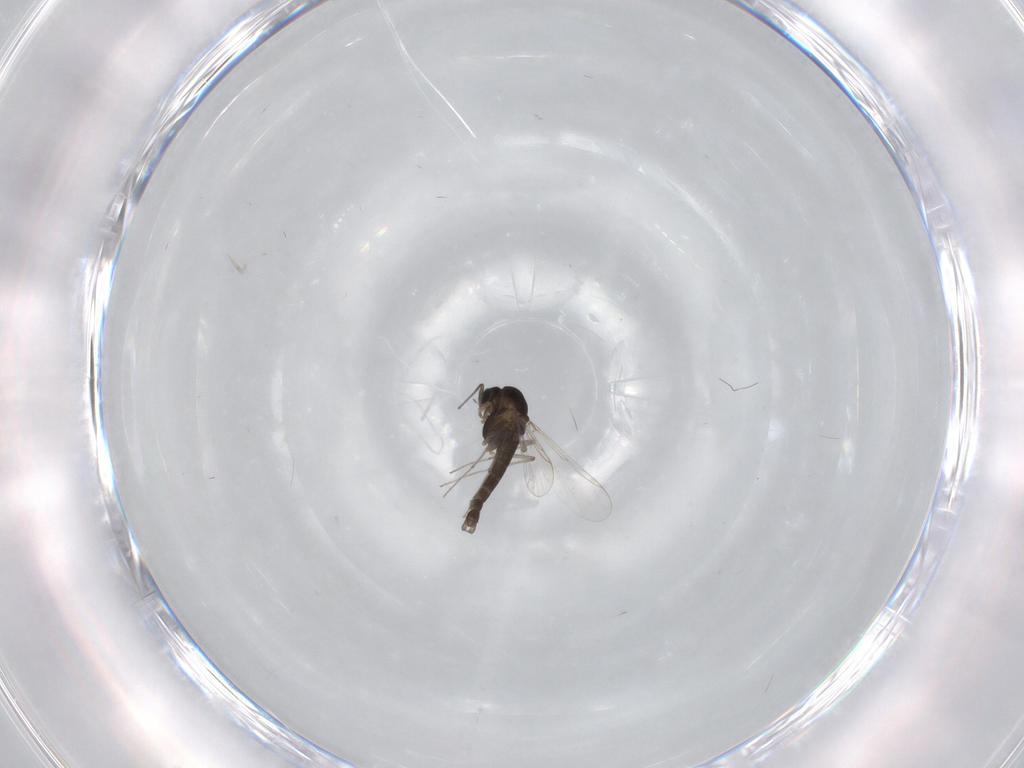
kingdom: Animalia
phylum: Arthropoda
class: Insecta
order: Diptera
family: Chironomidae
